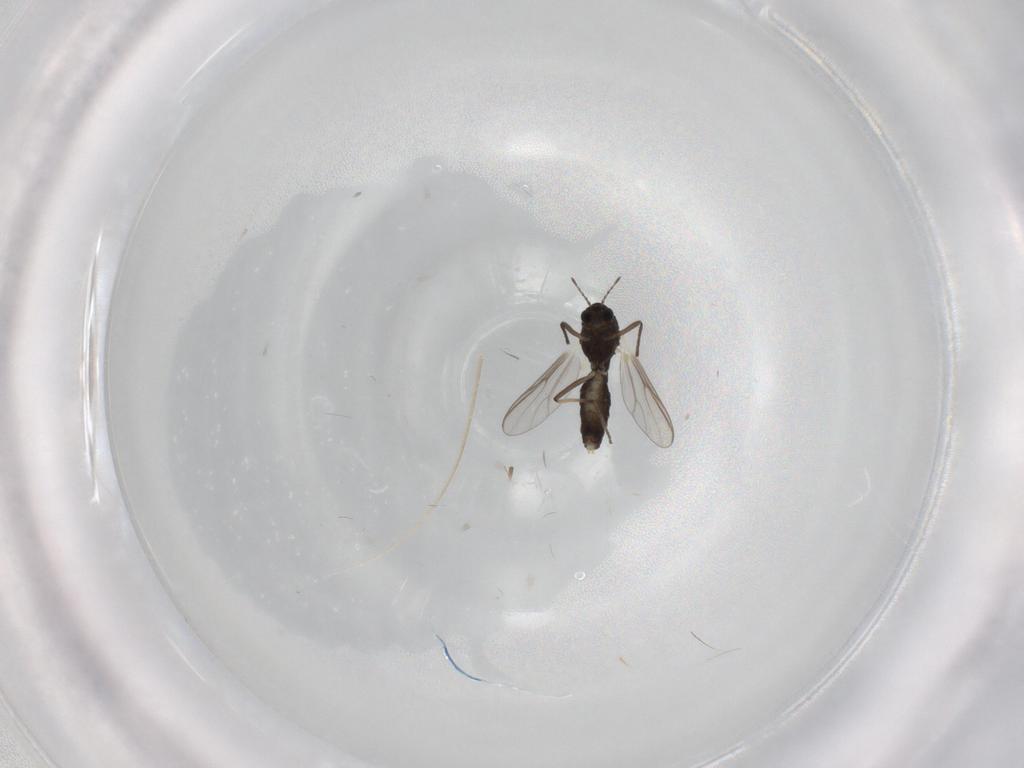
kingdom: Animalia
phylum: Arthropoda
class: Insecta
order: Diptera
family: Chironomidae
